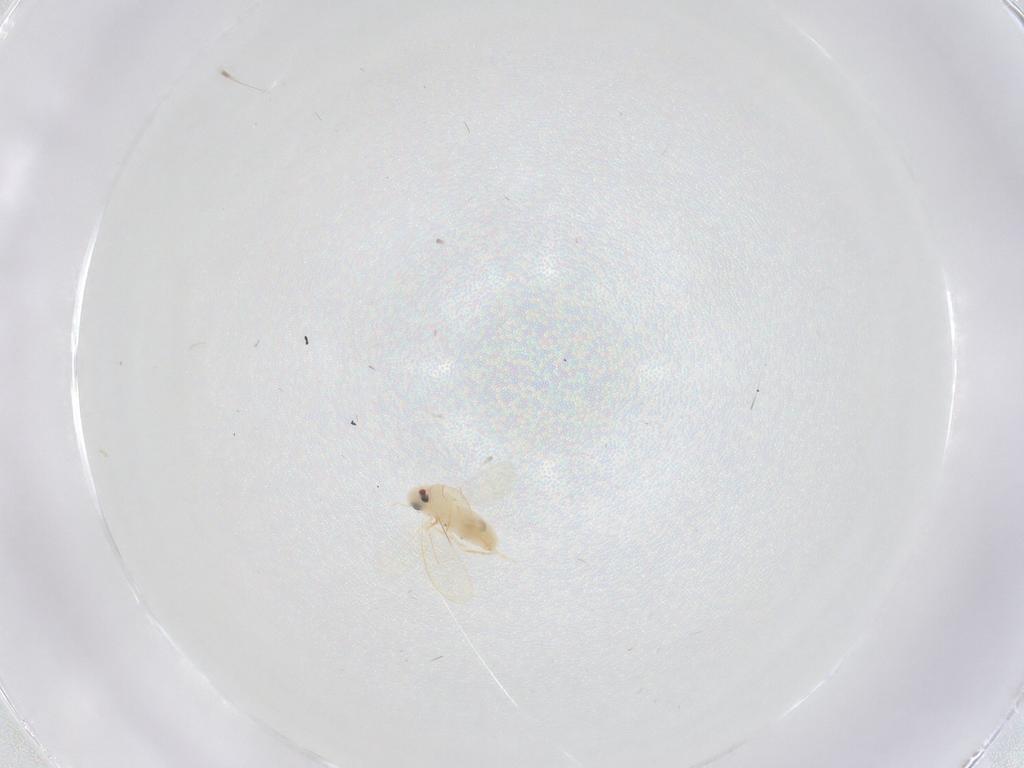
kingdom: Animalia
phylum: Arthropoda
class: Insecta
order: Hemiptera
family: Aleyrodidae
